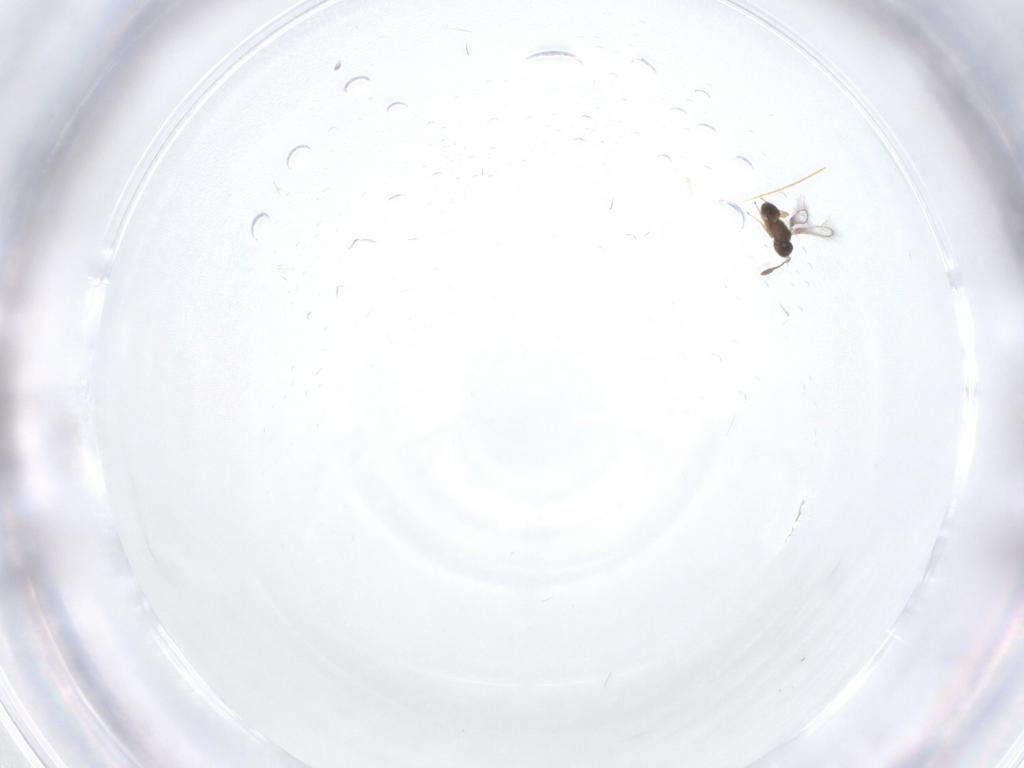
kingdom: Animalia
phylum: Arthropoda
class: Insecta
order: Hymenoptera
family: Mymaridae
